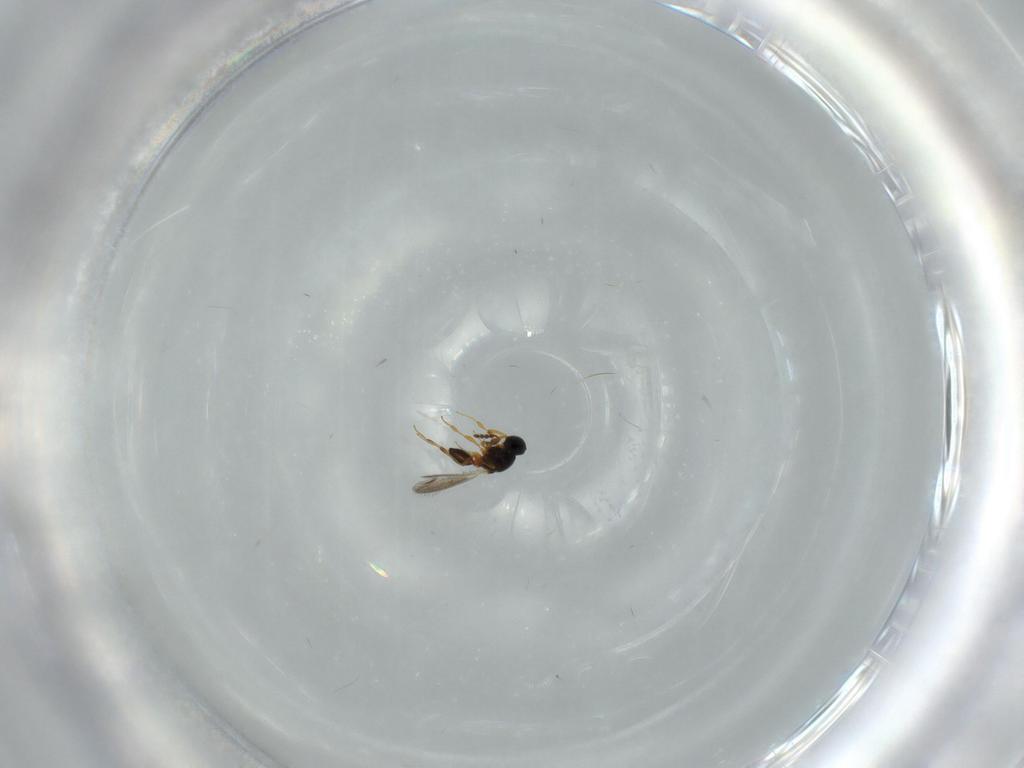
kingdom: Animalia
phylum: Arthropoda
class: Insecta
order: Hymenoptera
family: Platygastridae
